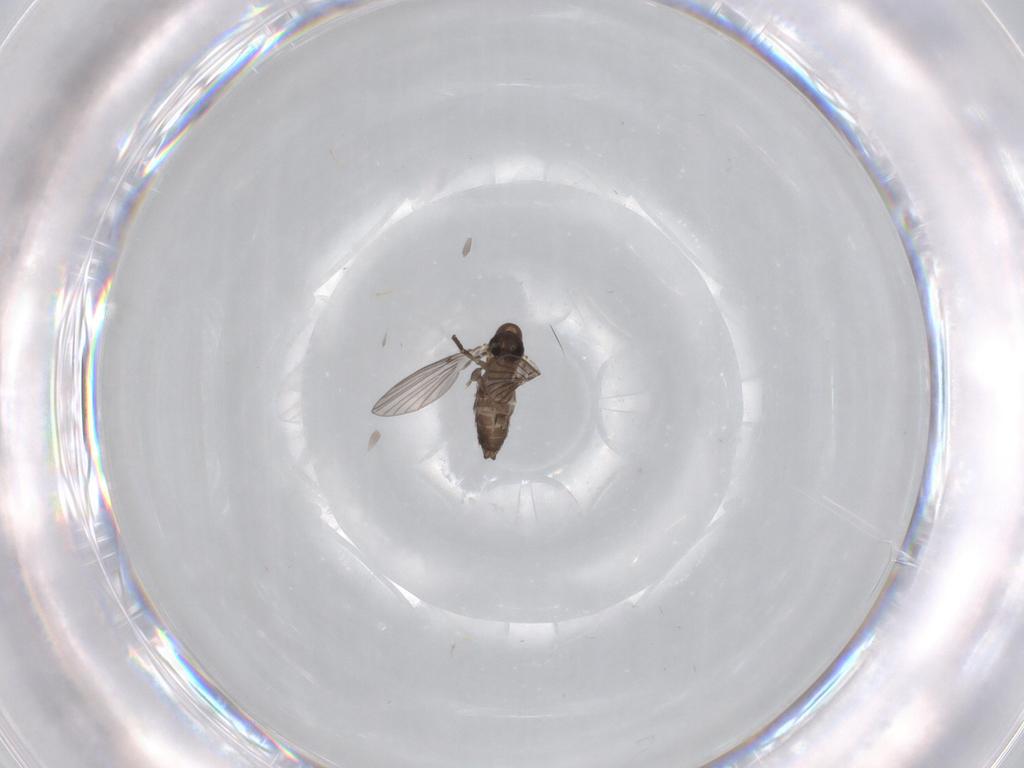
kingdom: Animalia
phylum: Arthropoda
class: Insecta
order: Diptera
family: Cecidomyiidae
